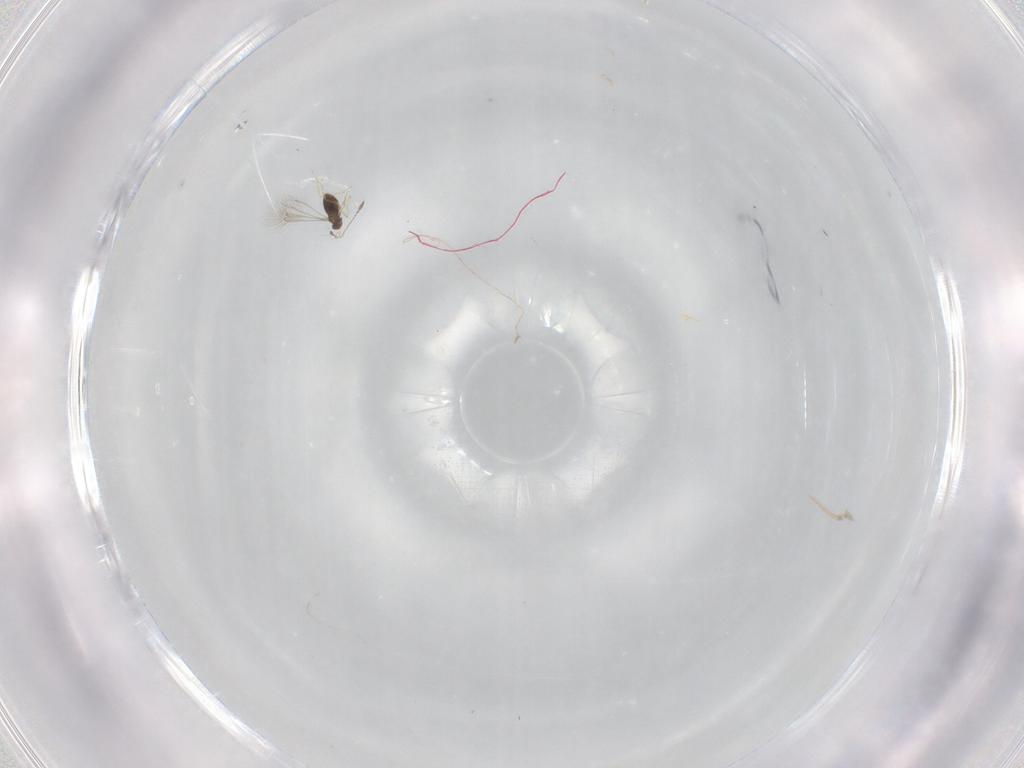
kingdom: Animalia
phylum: Arthropoda
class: Insecta
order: Hymenoptera
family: Mymaridae
